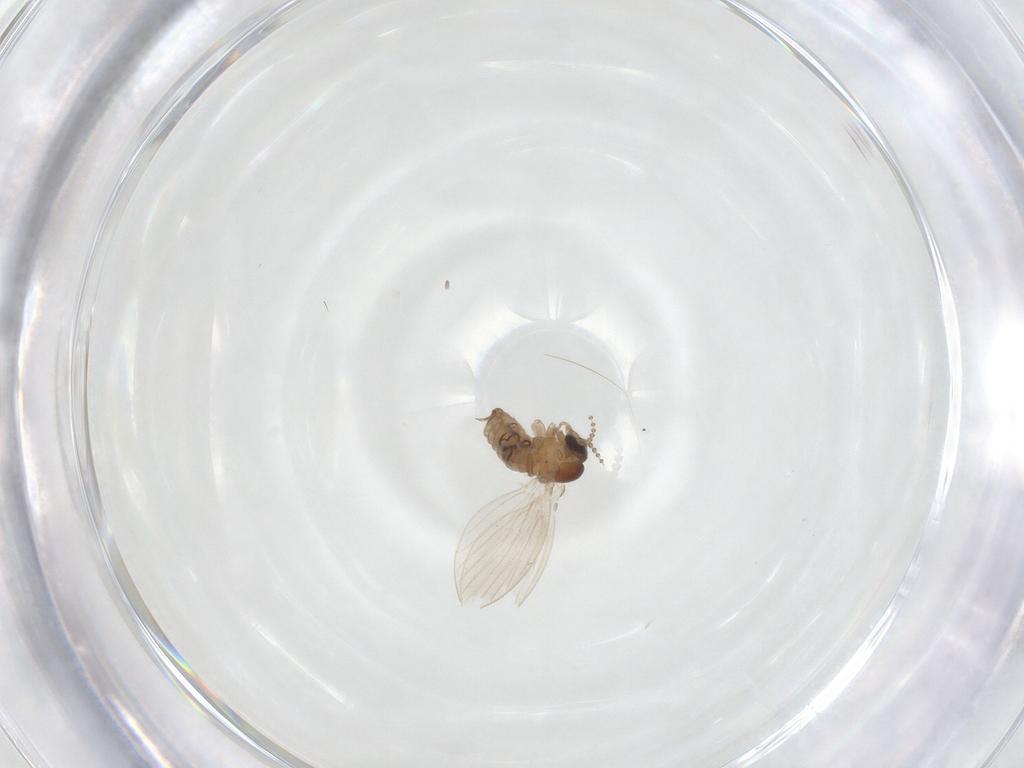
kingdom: Animalia
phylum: Arthropoda
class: Insecta
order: Diptera
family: Psychodidae
